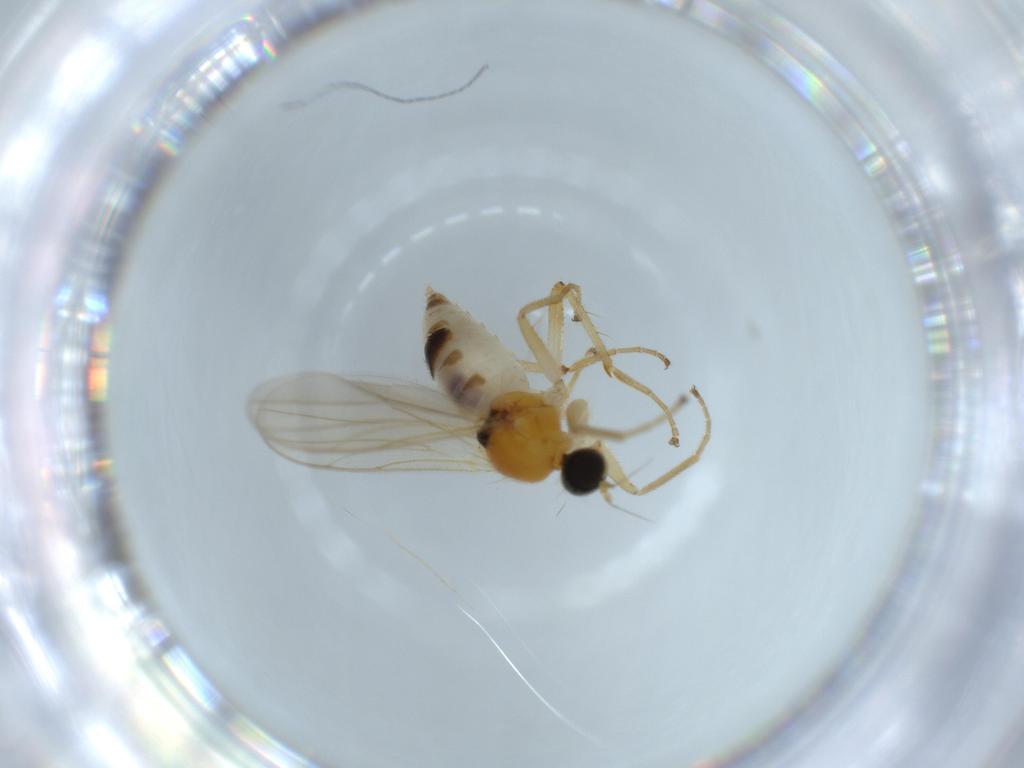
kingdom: Animalia
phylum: Arthropoda
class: Insecta
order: Diptera
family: Hybotidae
